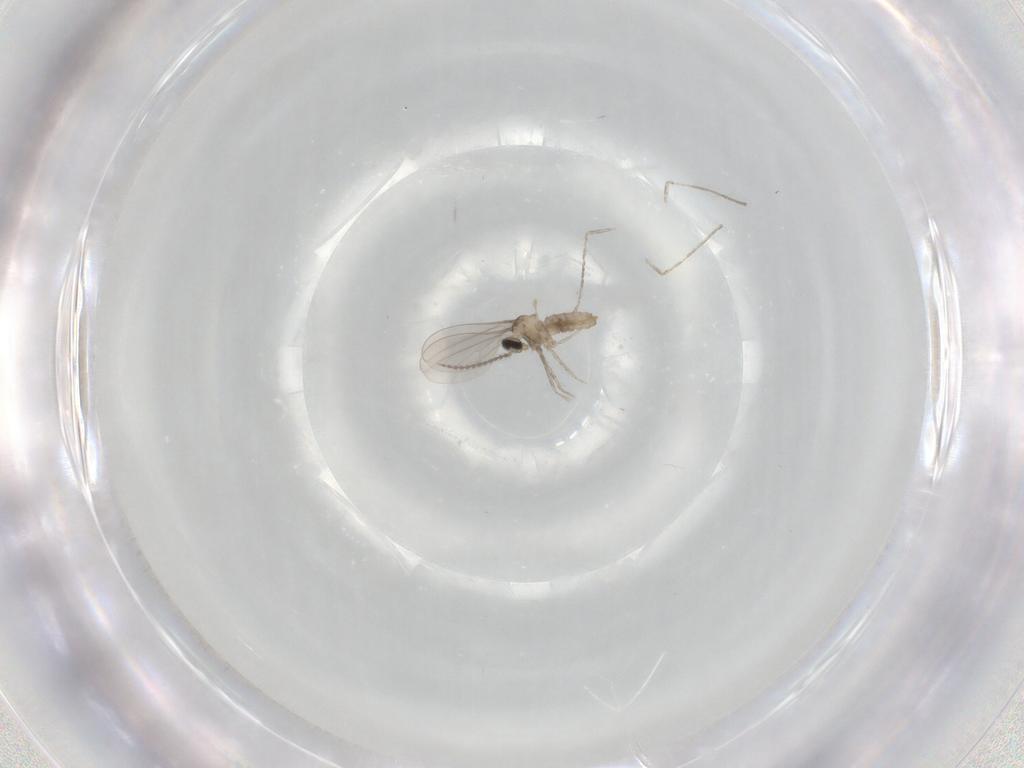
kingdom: Animalia
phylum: Arthropoda
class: Insecta
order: Diptera
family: Cecidomyiidae
